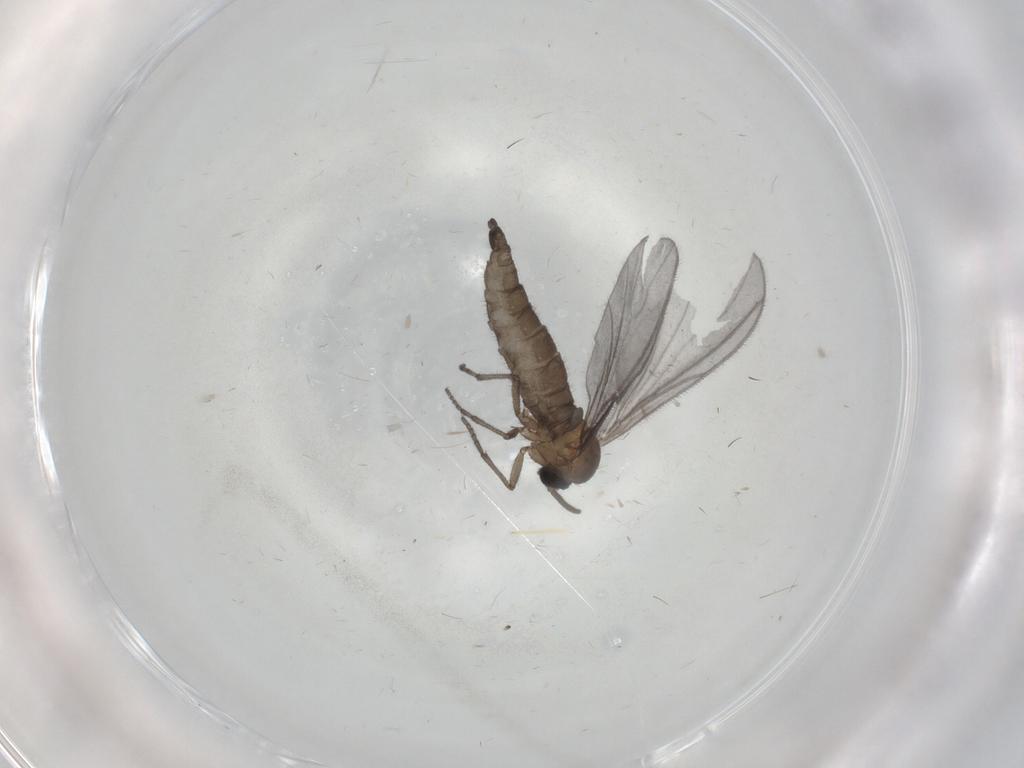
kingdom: Animalia
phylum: Arthropoda
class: Insecta
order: Diptera
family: Sciaridae
